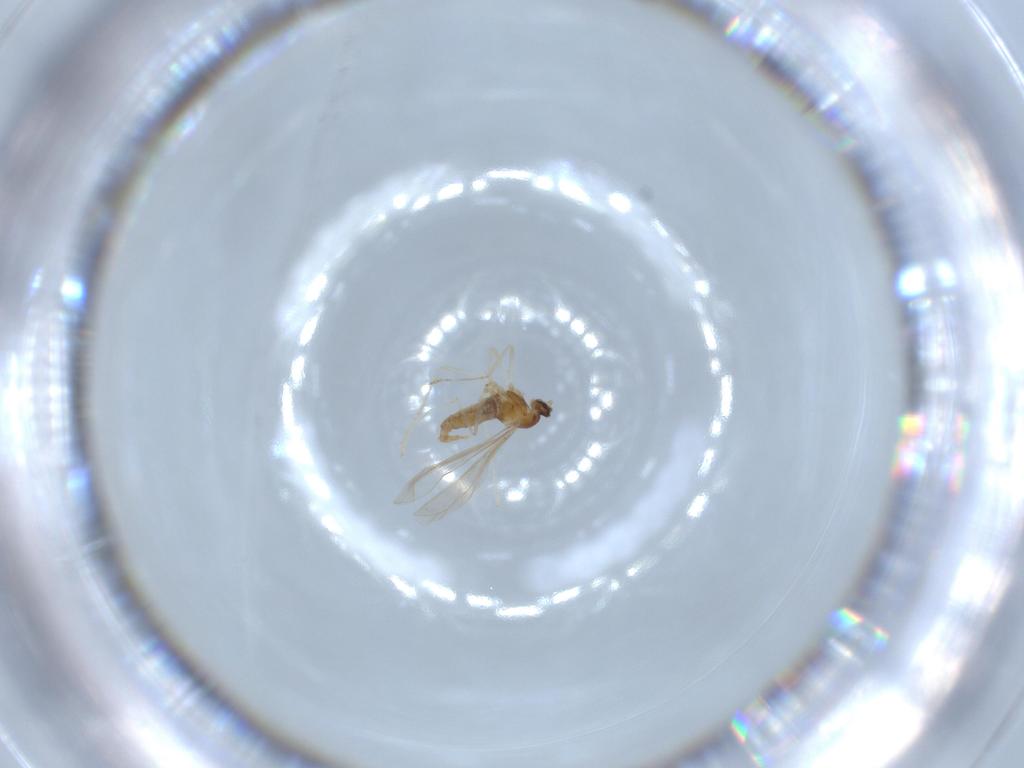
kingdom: Animalia
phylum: Arthropoda
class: Insecta
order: Diptera
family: Cecidomyiidae
